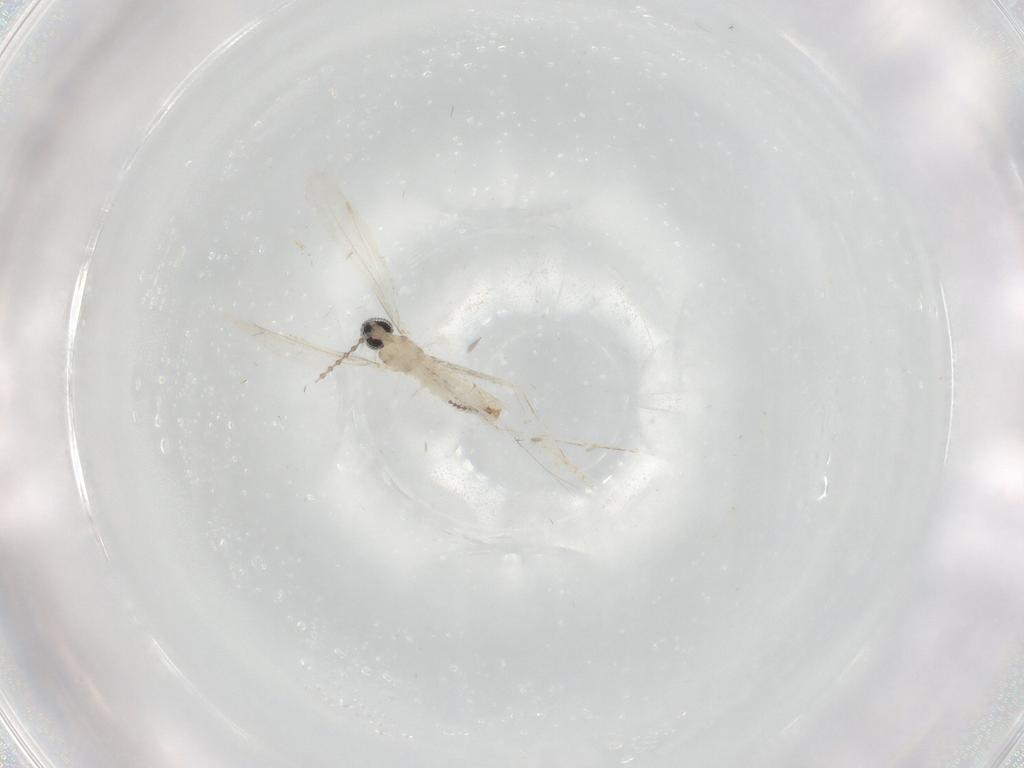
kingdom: Animalia
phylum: Arthropoda
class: Insecta
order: Diptera
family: Cecidomyiidae
